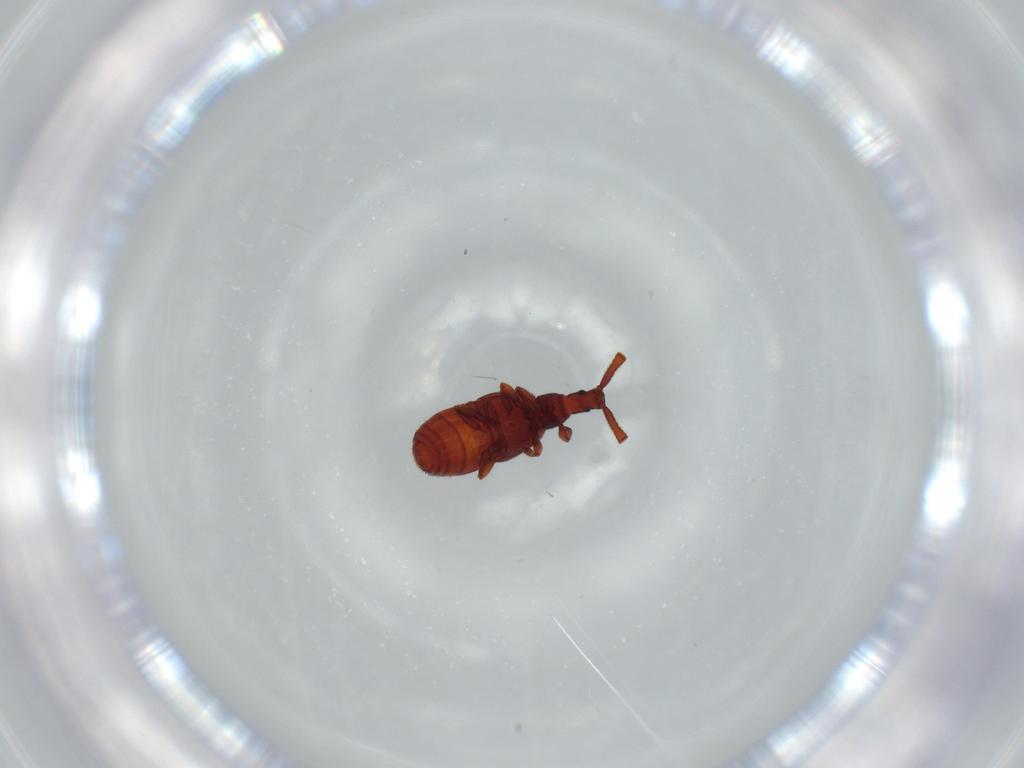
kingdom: Animalia
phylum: Arthropoda
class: Insecta
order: Coleoptera
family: Staphylinidae
